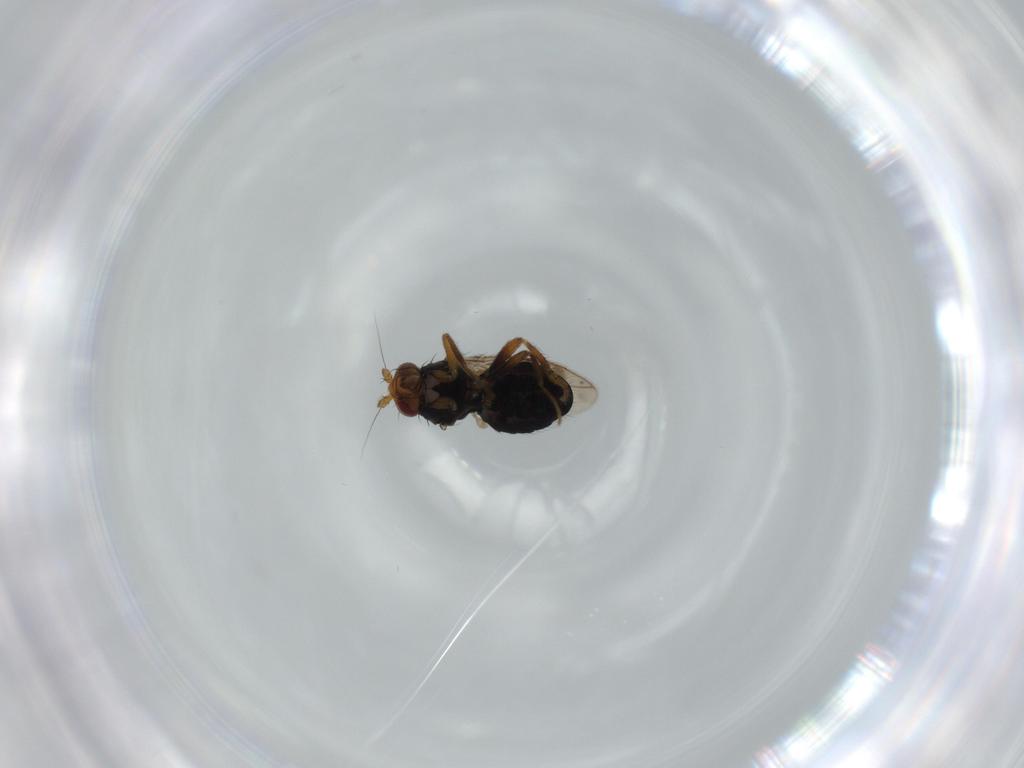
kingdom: Animalia
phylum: Arthropoda
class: Insecta
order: Diptera
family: Sphaeroceridae
